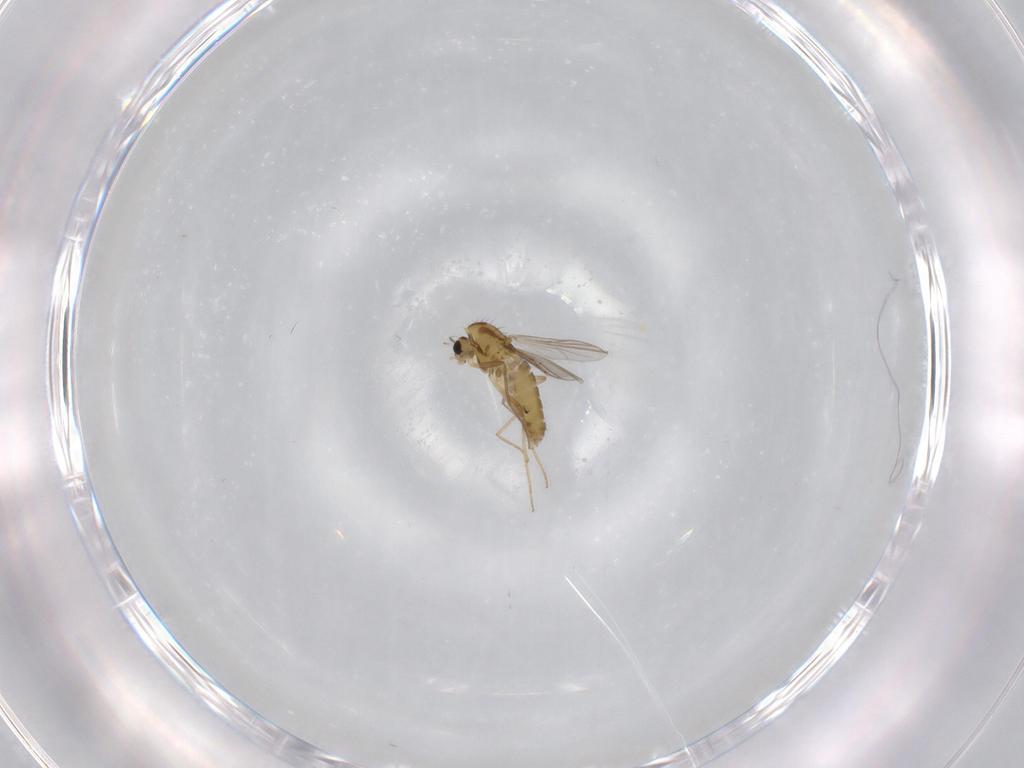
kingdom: Animalia
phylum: Arthropoda
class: Insecta
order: Diptera
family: Chironomidae
